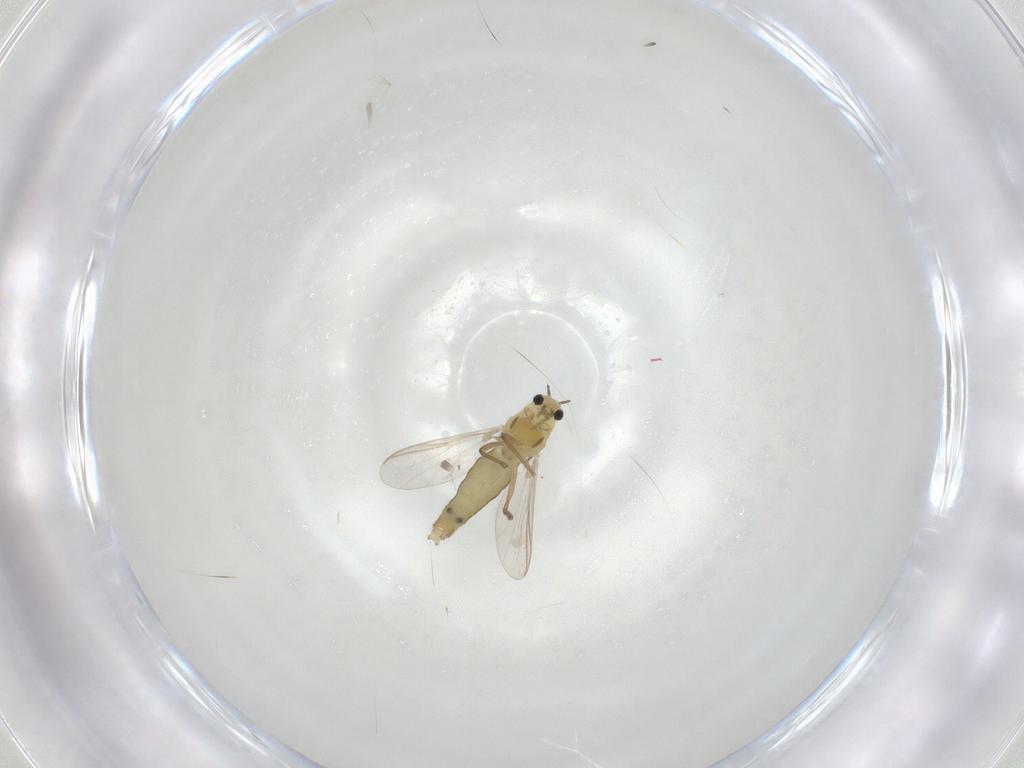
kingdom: Animalia
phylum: Arthropoda
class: Insecta
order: Diptera
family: Chironomidae
